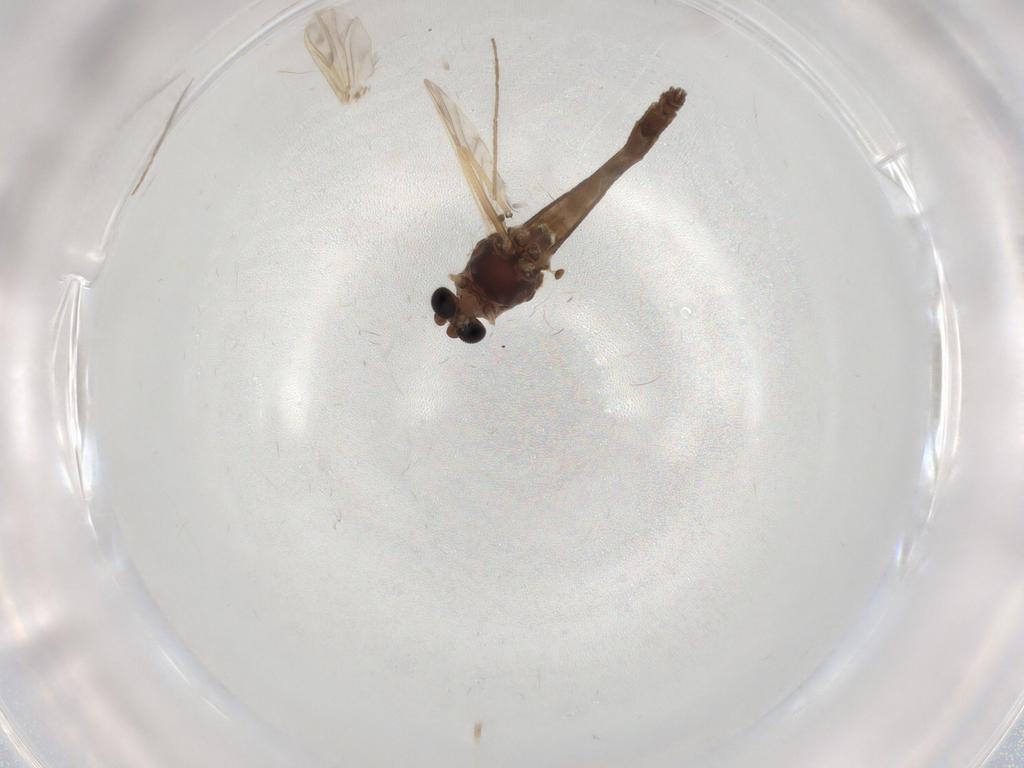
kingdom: Animalia
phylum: Arthropoda
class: Insecta
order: Diptera
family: Chironomidae
